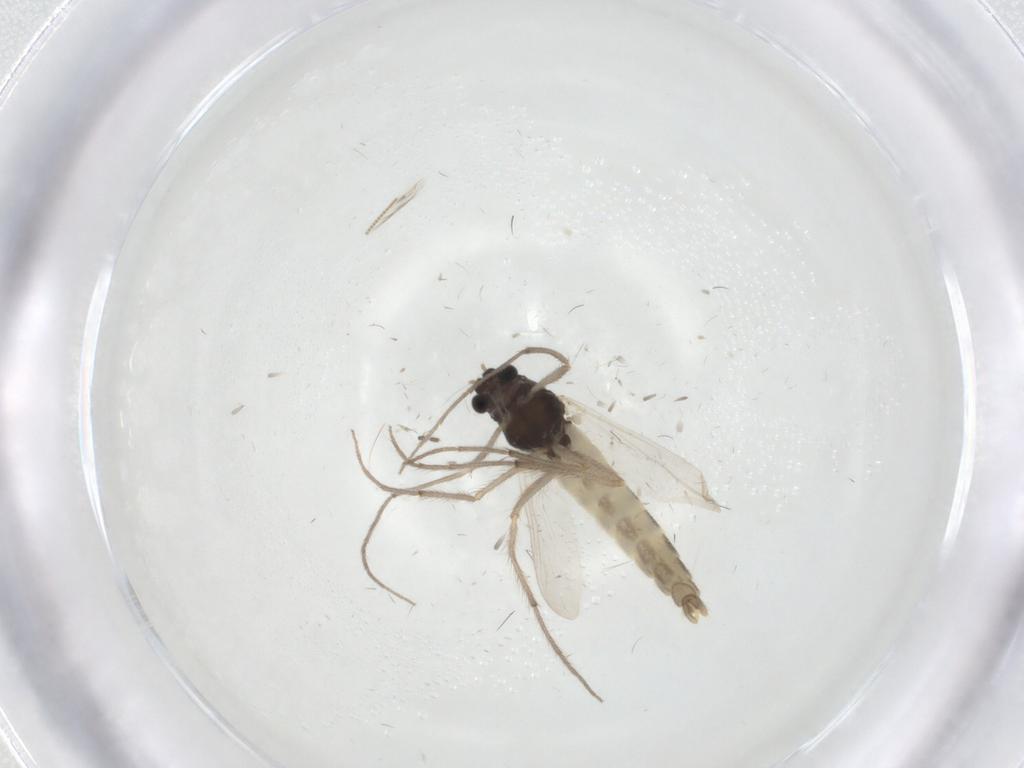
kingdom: Animalia
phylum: Arthropoda
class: Insecta
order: Diptera
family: Chironomidae
